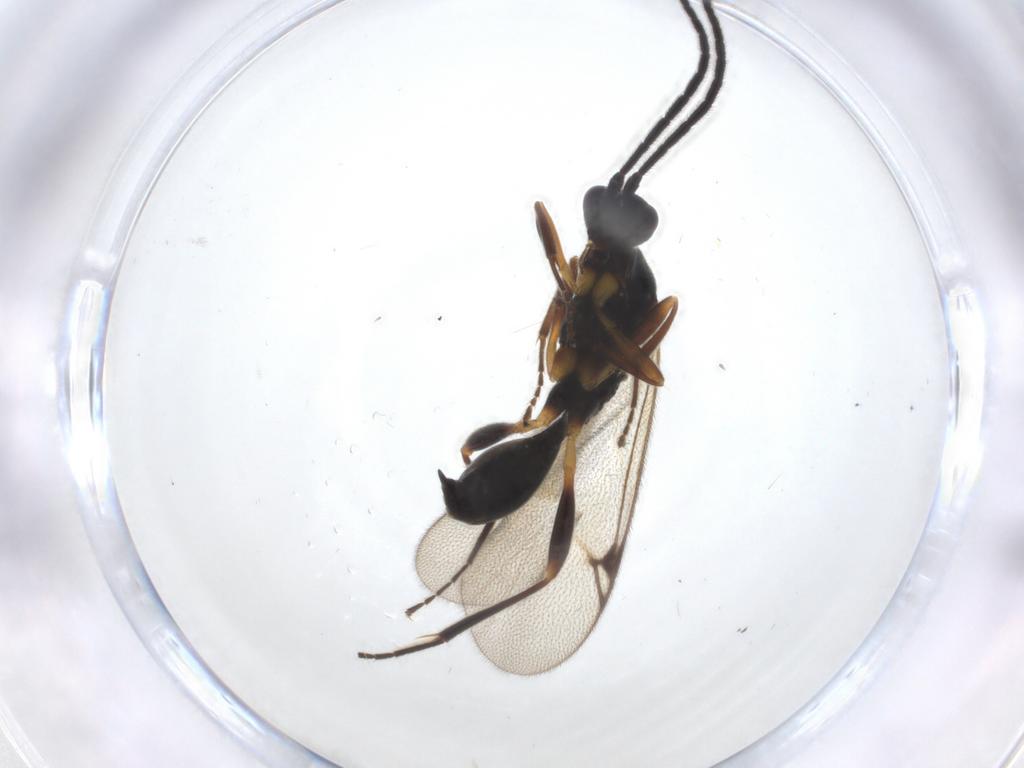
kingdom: Animalia
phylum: Arthropoda
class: Insecta
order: Hymenoptera
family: Proctotrupidae
